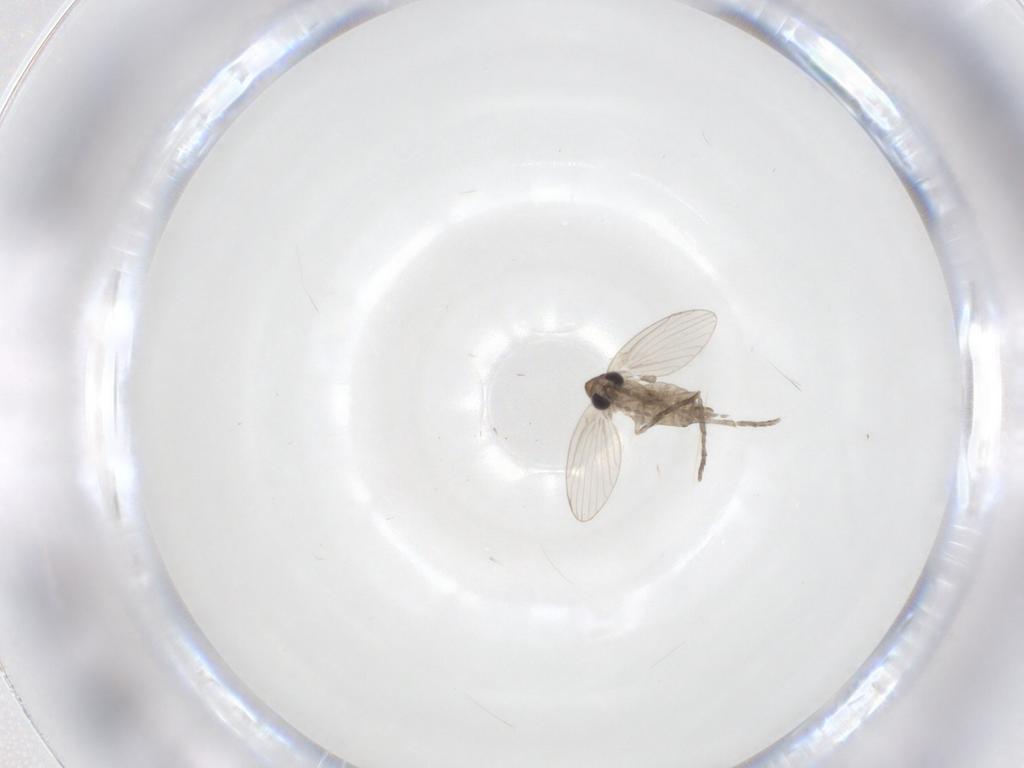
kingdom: Animalia
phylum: Arthropoda
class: Insecta
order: Diptera
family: Psychodidae
